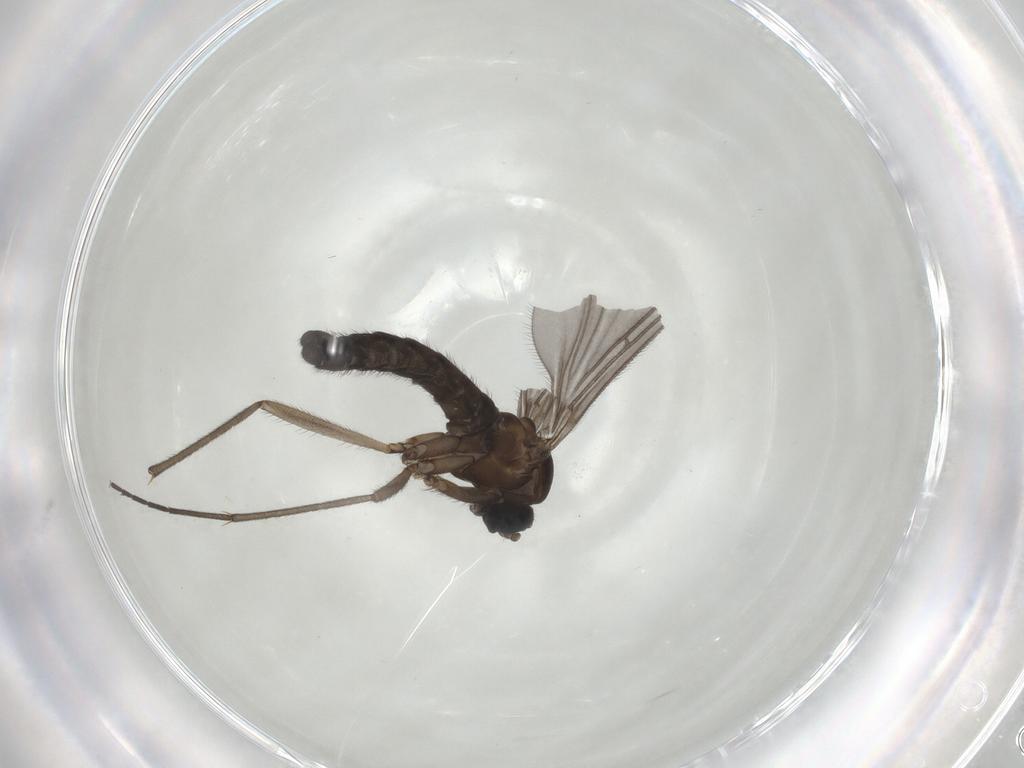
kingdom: Animalia
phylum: Arthropoda
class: Insecta
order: Diptera
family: Sciaridae
